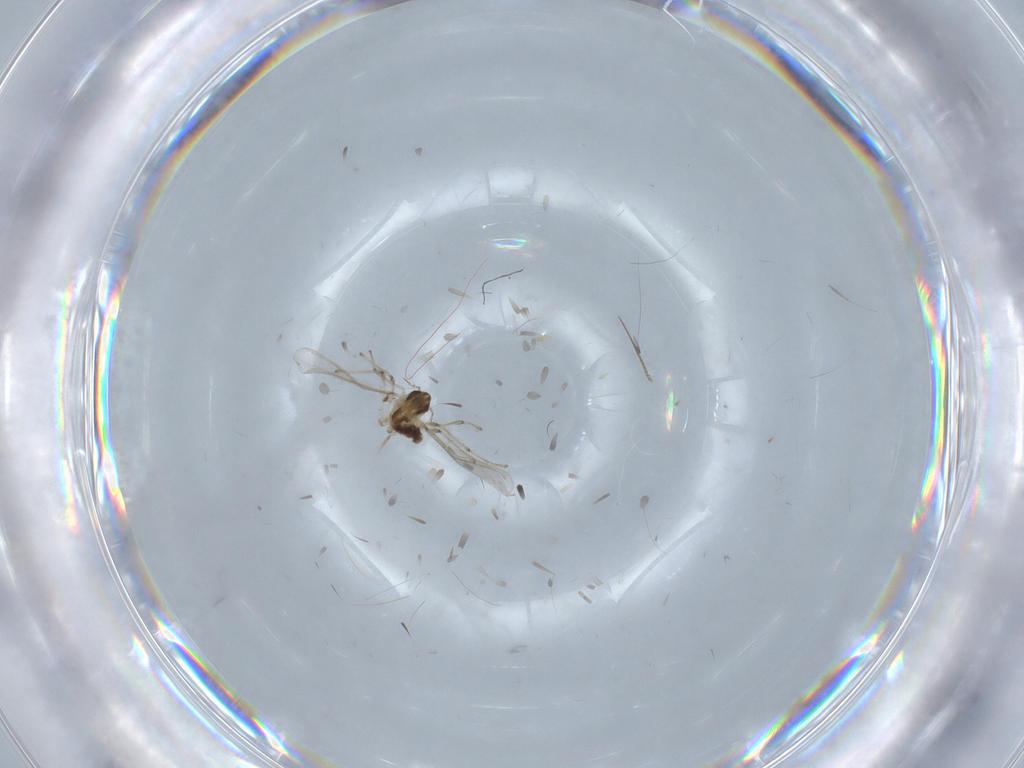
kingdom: Animalia
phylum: Arthropoda
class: Insecta
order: Diptera
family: Chironomidae
